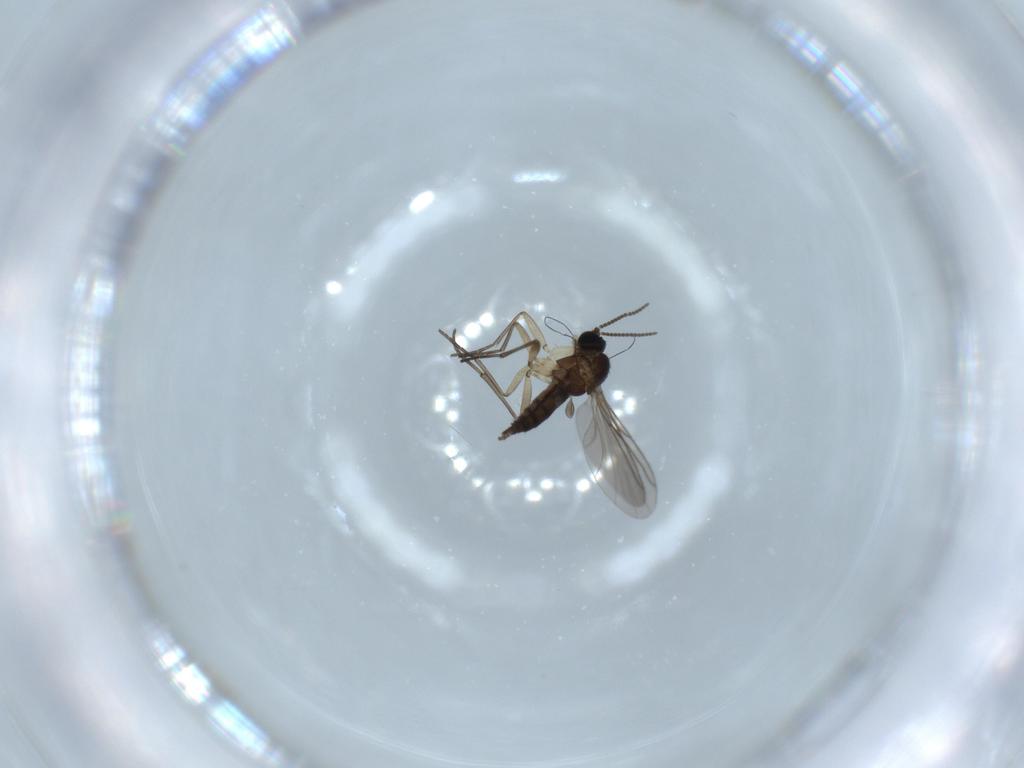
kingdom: Animalia
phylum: Arthropoda
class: Insecta
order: Diptera
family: Sciaridae
